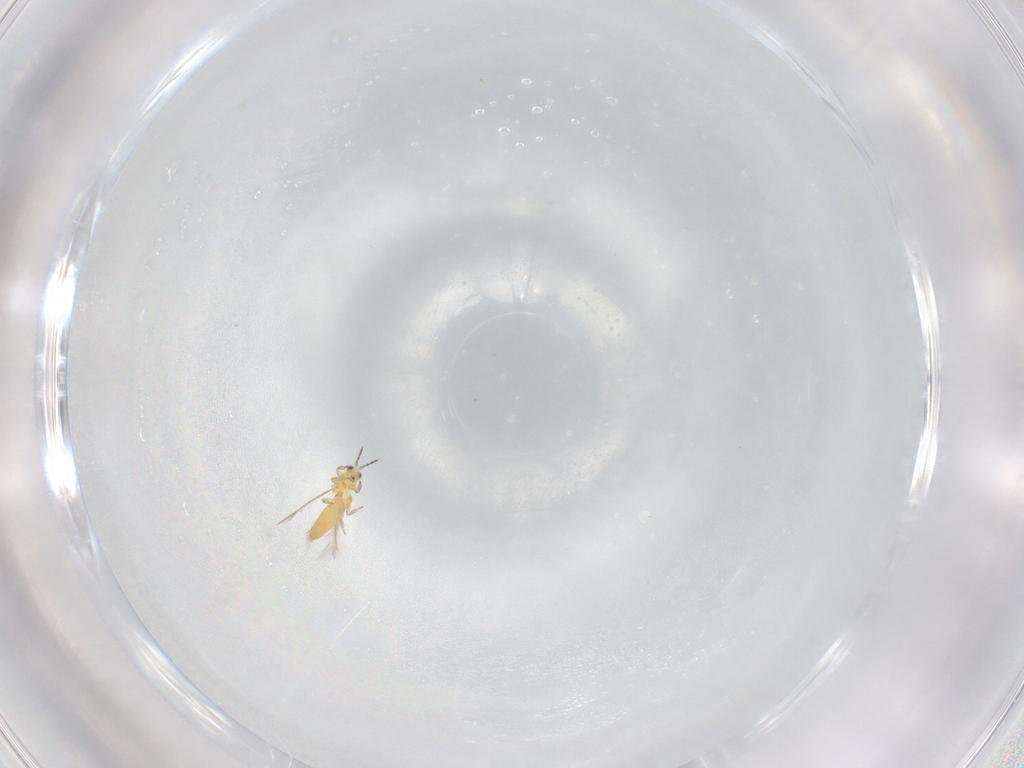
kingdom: Animalia
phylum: Arthropoda
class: Insecta
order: Thysanoptera
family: Thripidae
